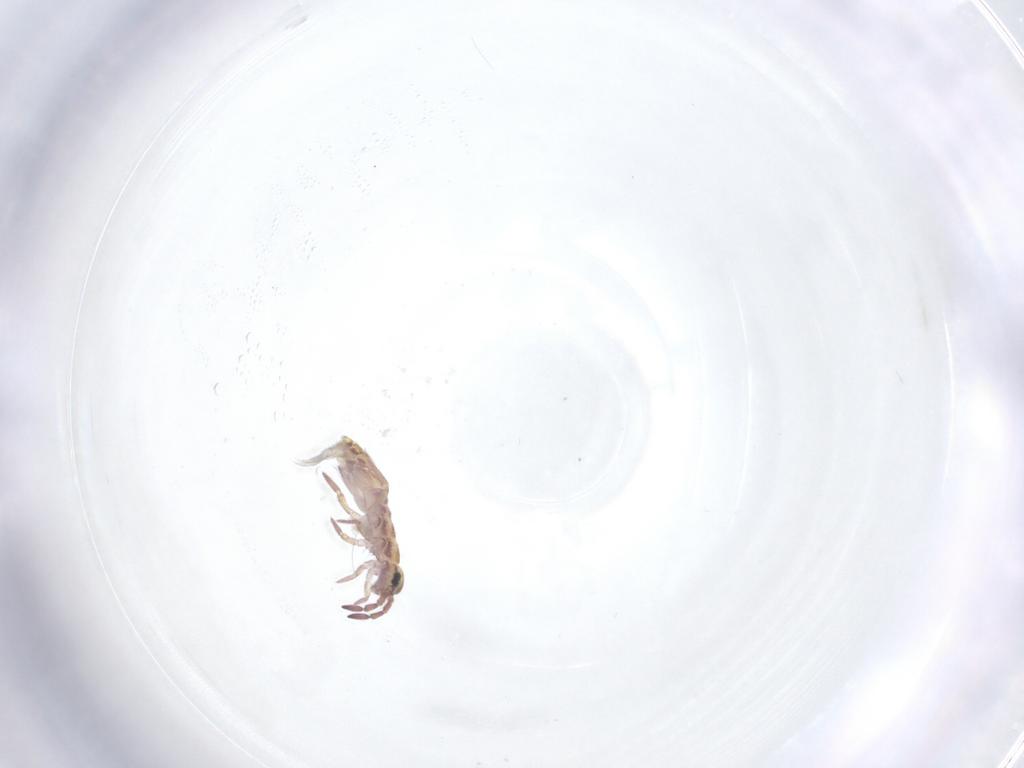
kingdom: Animalia
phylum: Arthropoda
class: Collembola
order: Entomobryomorpha
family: Isotomidae
